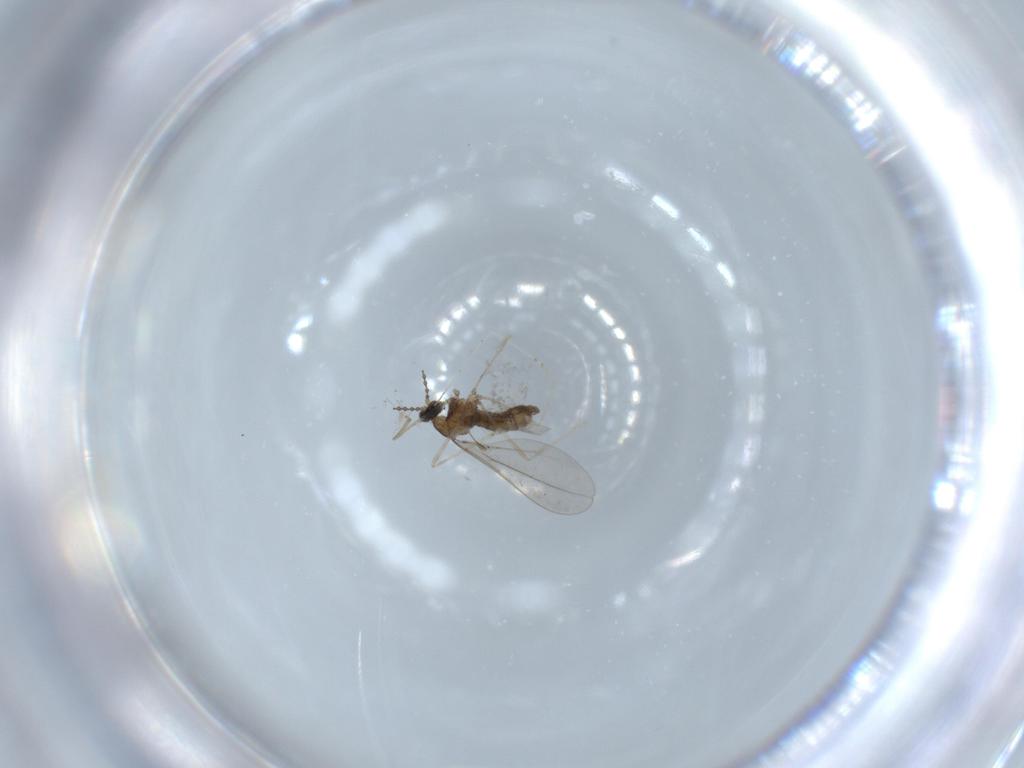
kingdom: Animalia
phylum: Arthropoda
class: Insecta
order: Diptera
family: Cecidomyiidae
